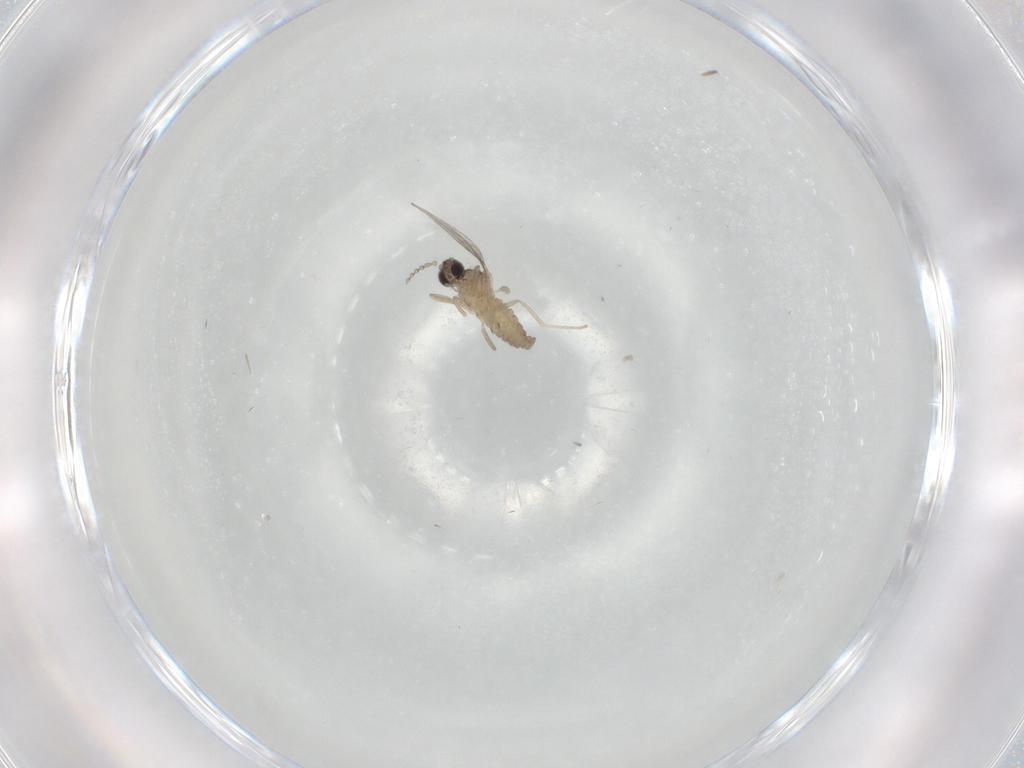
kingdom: Animalia
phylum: Arthropoda
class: Insecta
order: Diptera
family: Cecidomyiidae
